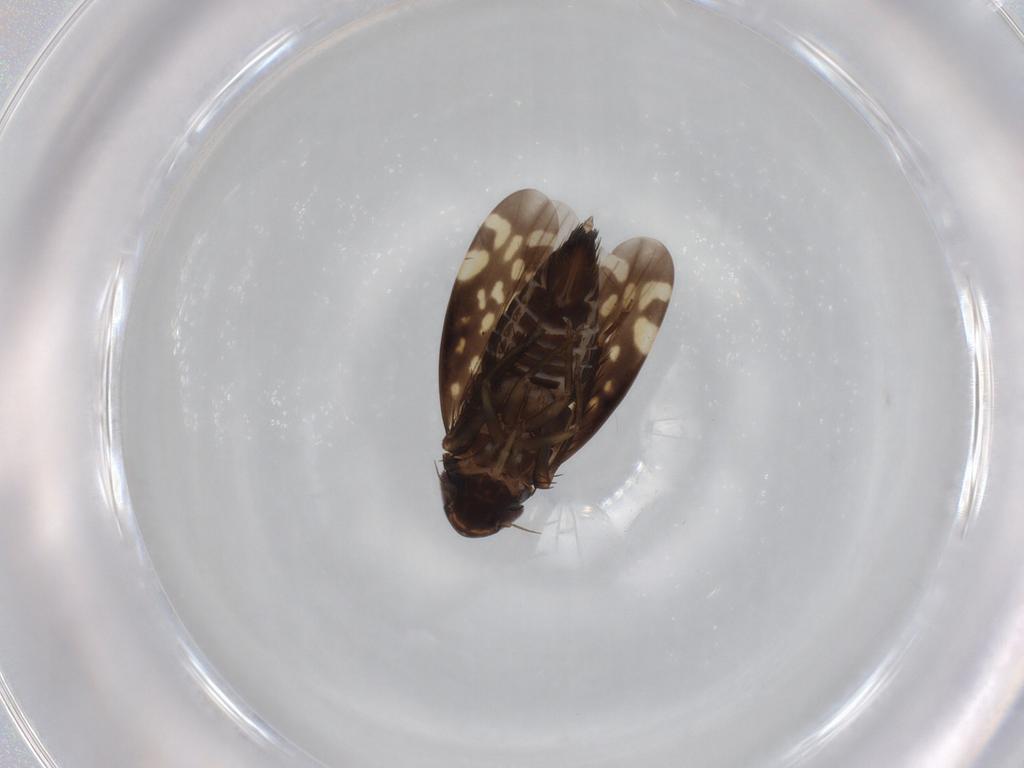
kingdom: Animalia
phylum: Arthropoda
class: Insecta
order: Hemiptera
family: Cicadellidae
